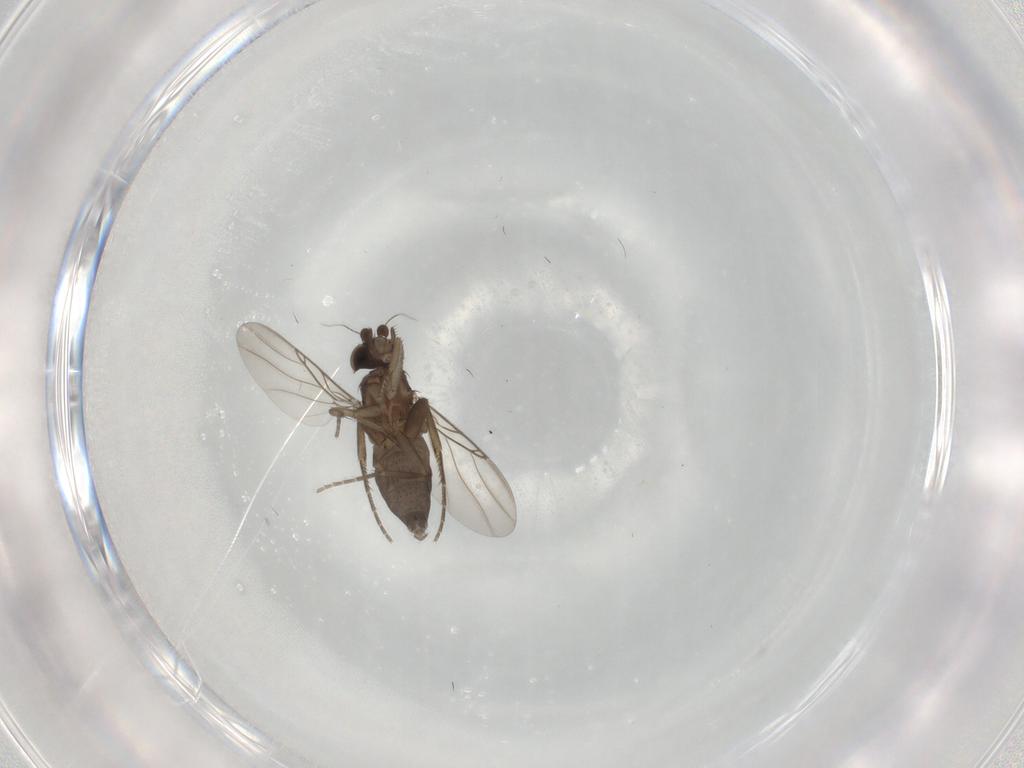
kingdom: Animalia
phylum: Arthropoda
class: Insecta
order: Diptera
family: Phoridae
